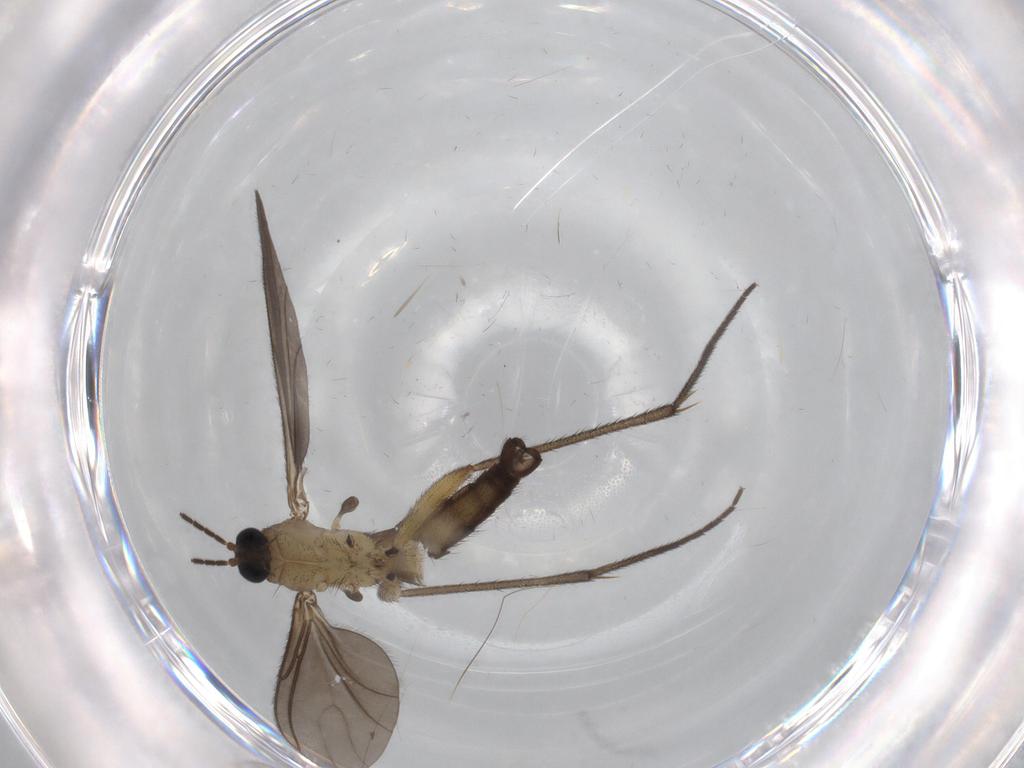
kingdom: Animalia
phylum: Arthropoda
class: Insecta
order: Diptera
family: Sciaridae
